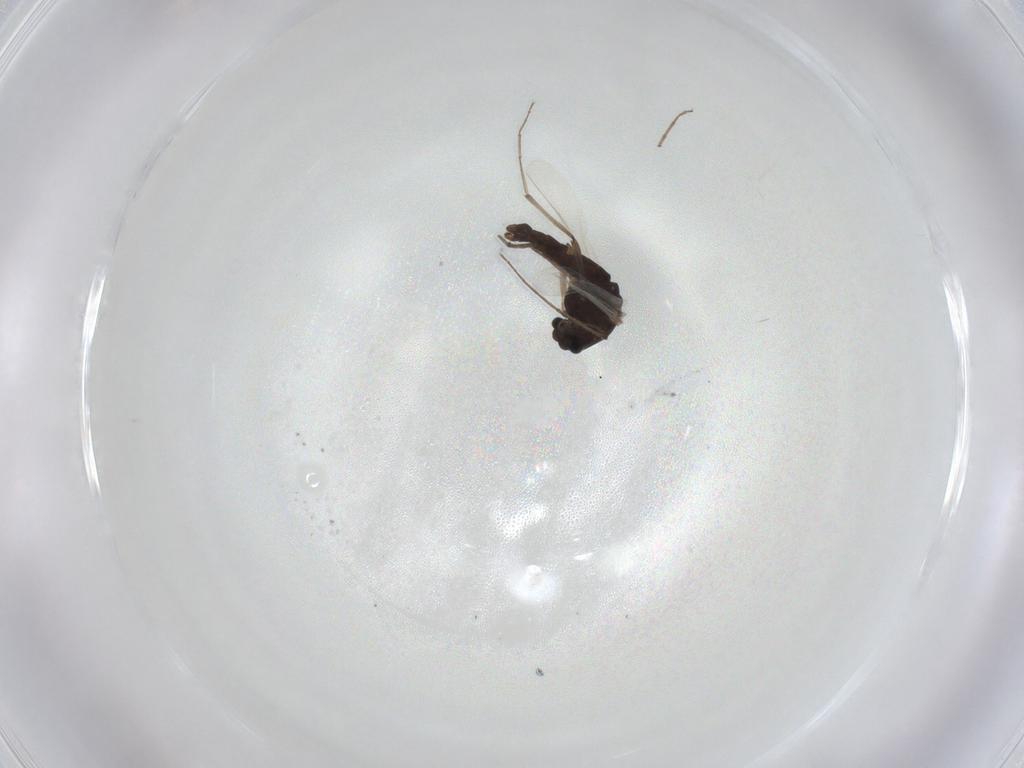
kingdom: Animalia
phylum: Arthropoda
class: Insecta
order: Diptera
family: Chironomidae
